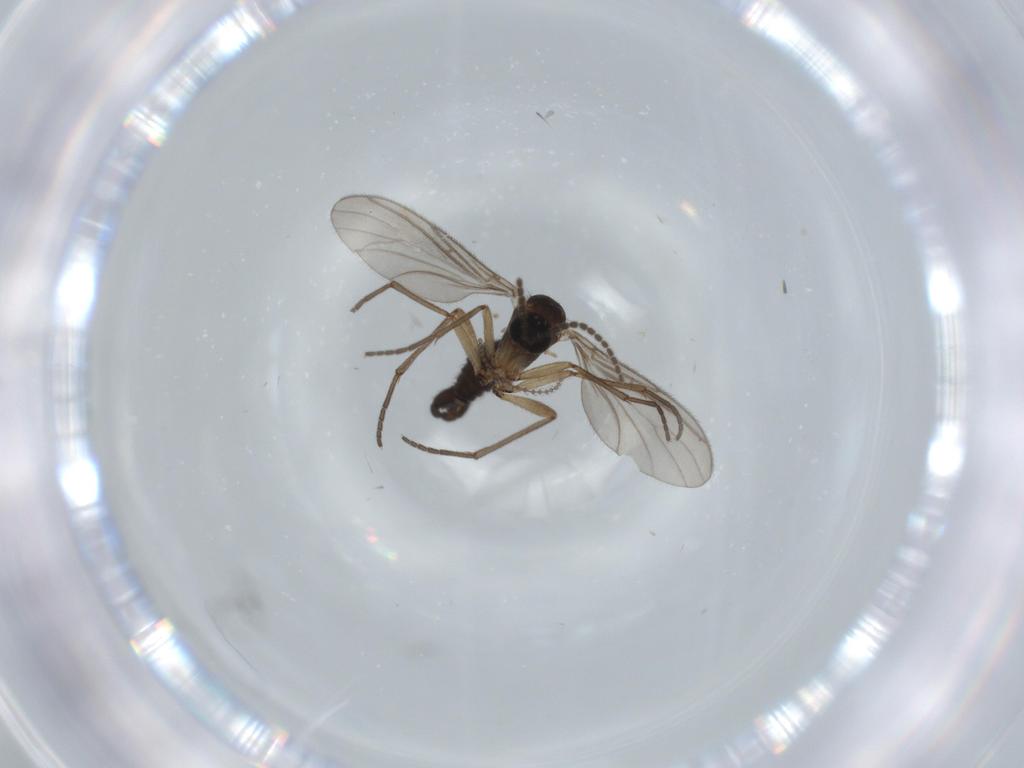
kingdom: Animalia
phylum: Arthropoda
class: Insecta
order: Diptera
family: Sciaridae
